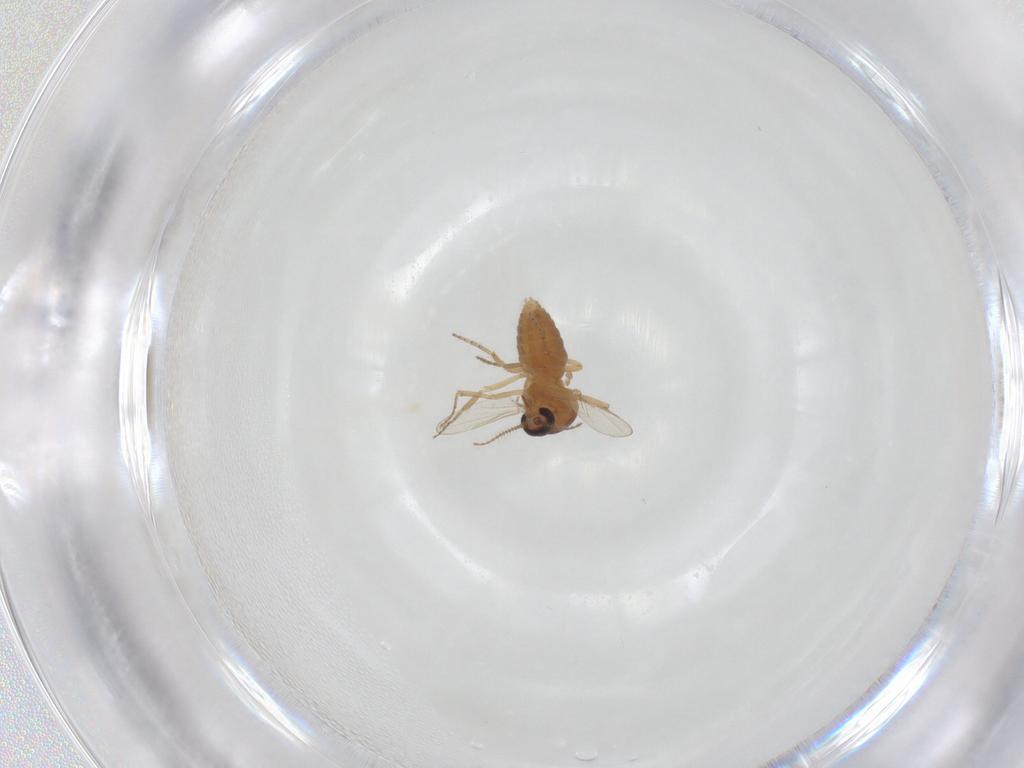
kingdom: Animalia
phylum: Arthropoda
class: Insecta
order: Diptera
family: Ceratopogonidae
